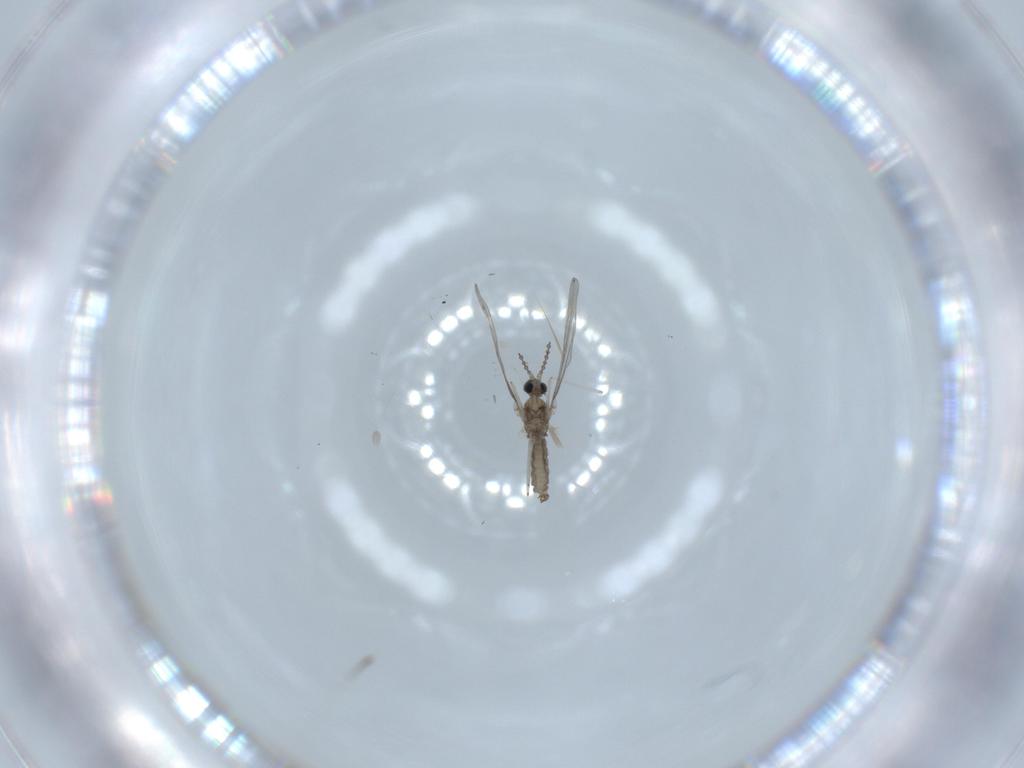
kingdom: Animalia
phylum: Arthropoda
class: Insecta
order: Diptera
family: Cecidomyiidae
